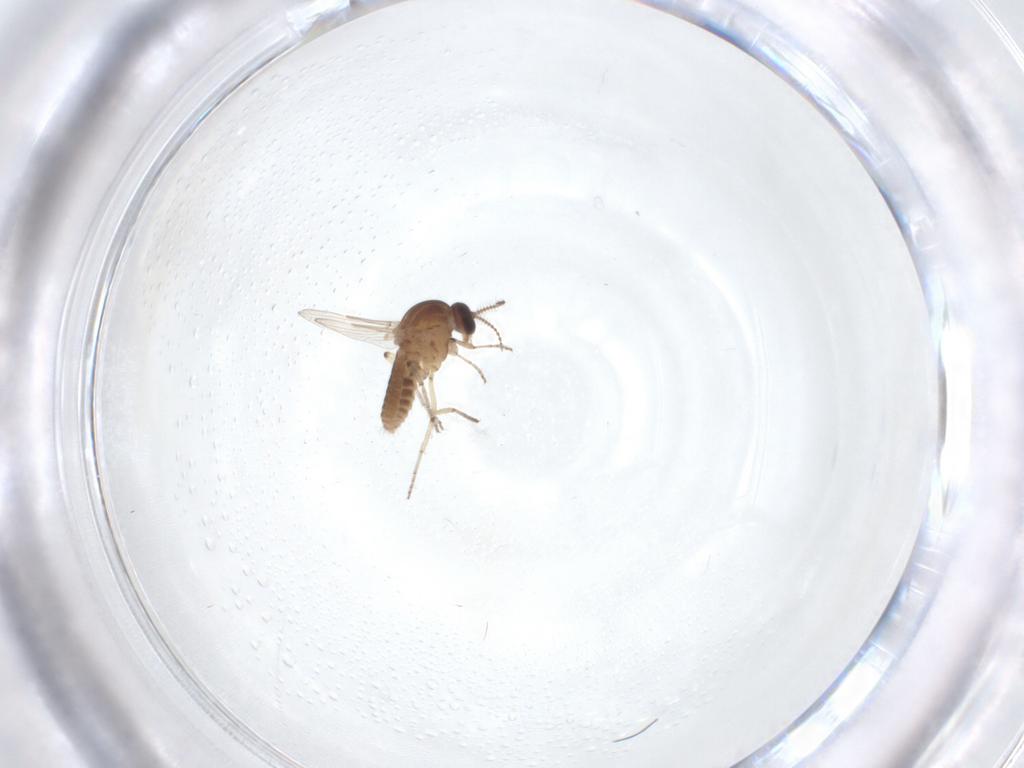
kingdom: Animalia
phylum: Arthropoda
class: Insecta
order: Diptera
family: Ceratopogonidae
